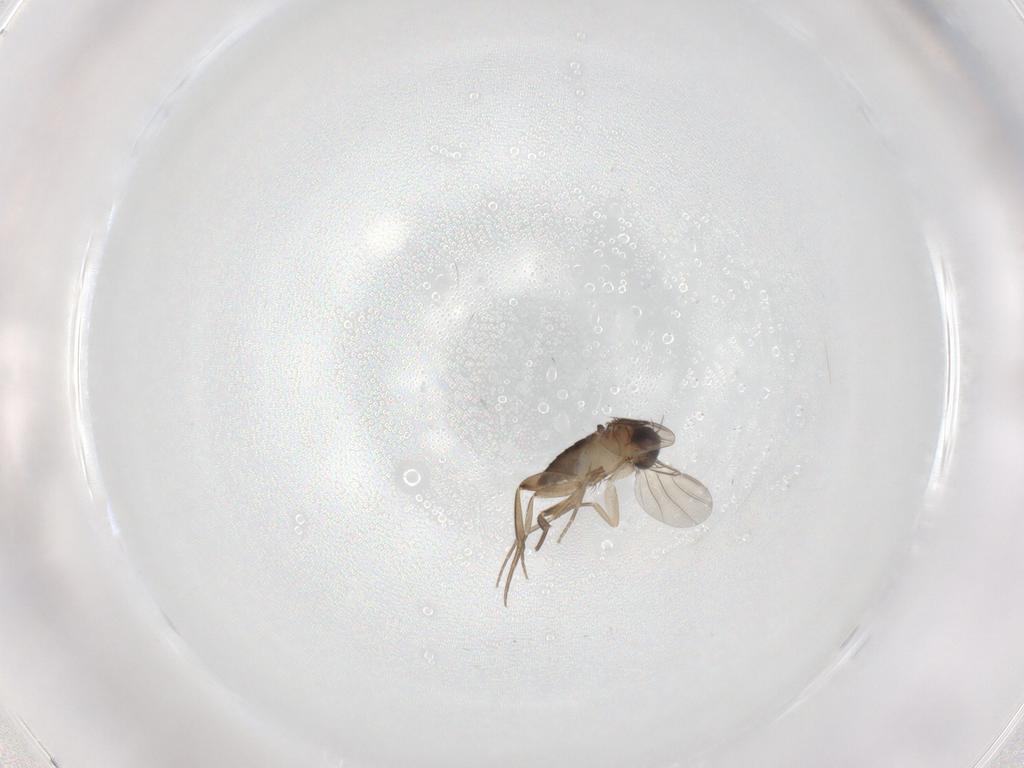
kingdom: Animalia
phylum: Arthropoda
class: Insecta
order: Diptera
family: Phoridae
